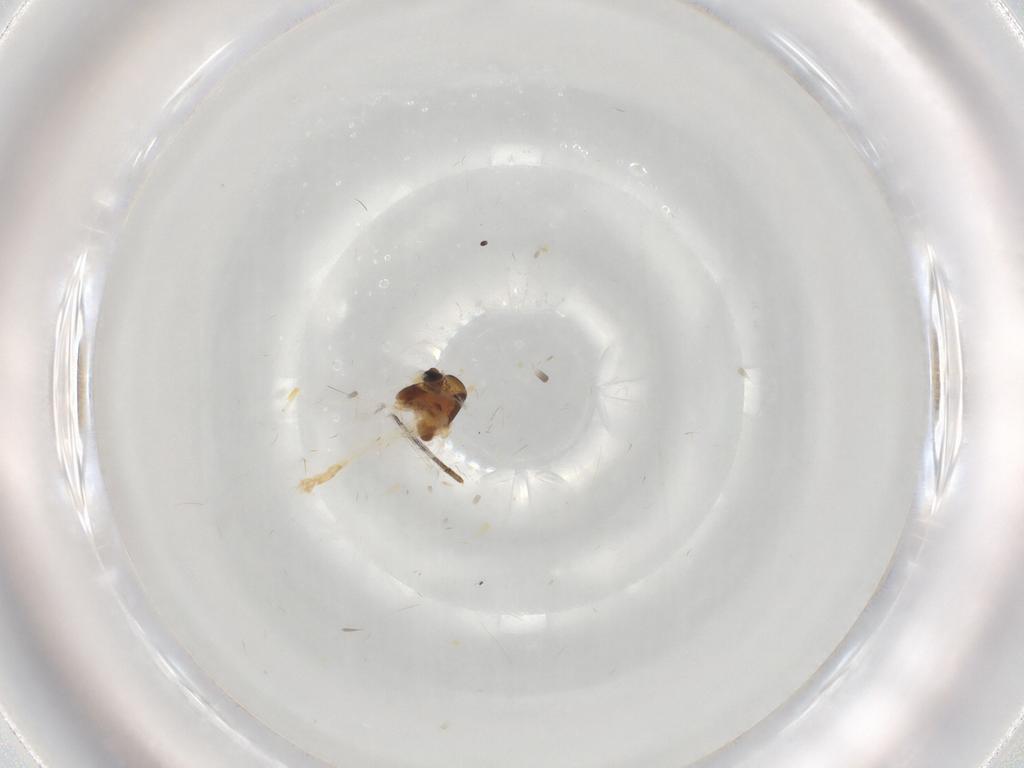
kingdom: Animalia
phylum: Arthropoda
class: Insecta
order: Diptera
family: Chironomidae
